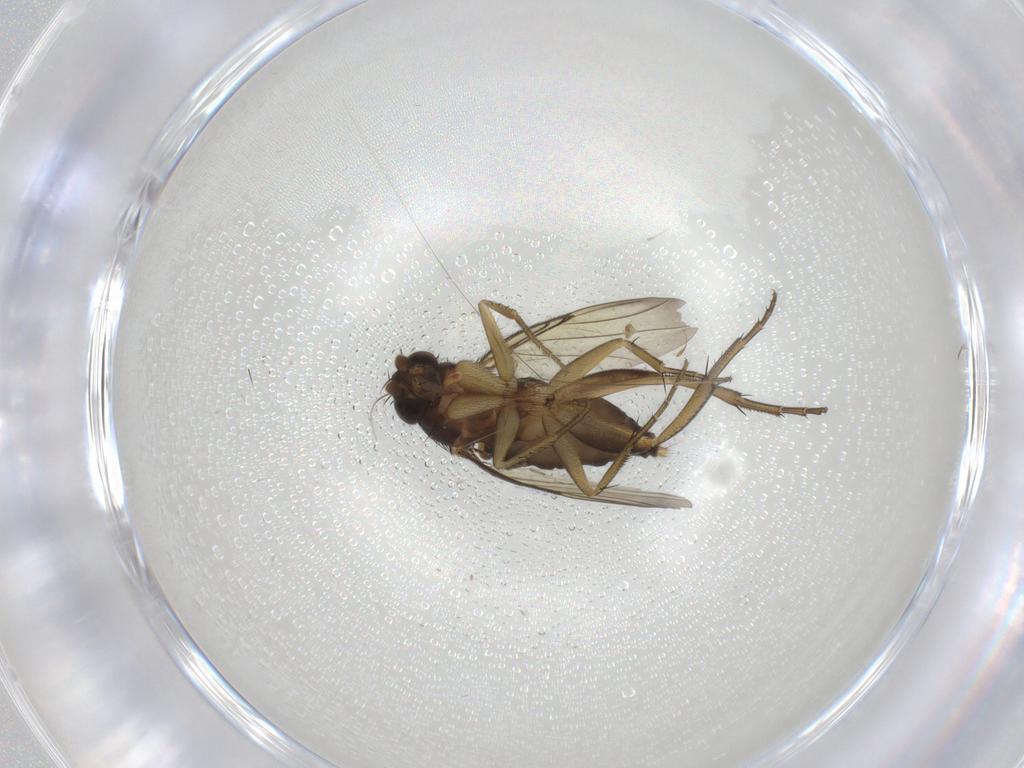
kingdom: Animalia
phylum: Arthropoda
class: Insecta
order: Diptera
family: Phoridae
